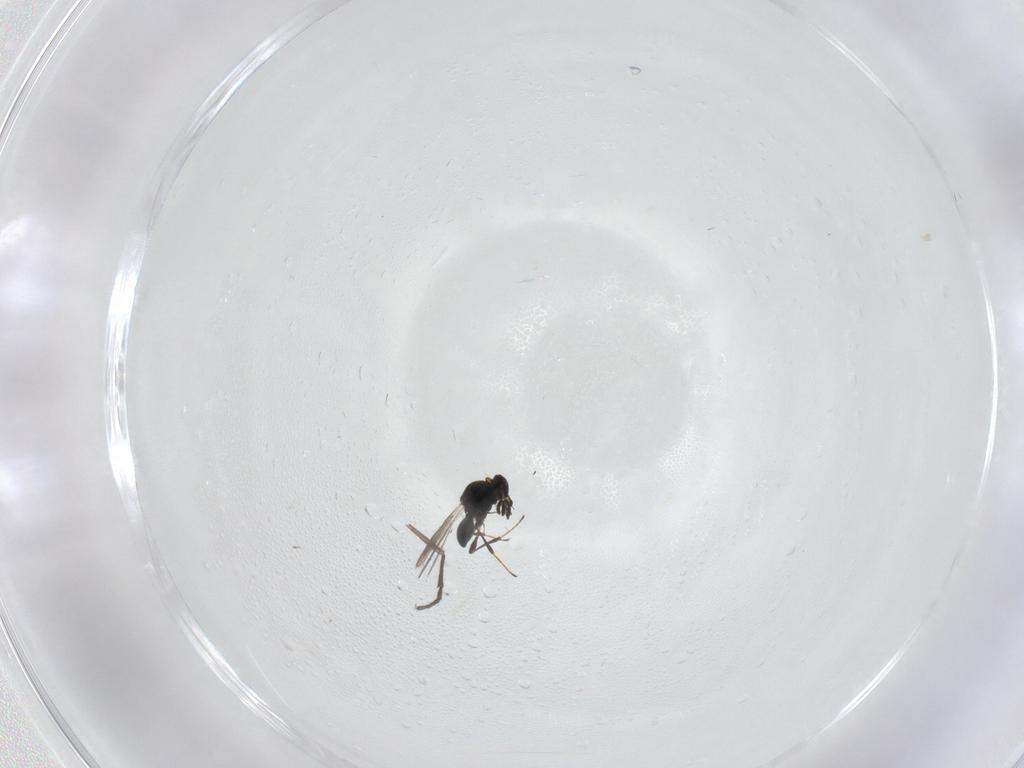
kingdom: Animalia
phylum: Arthropoda
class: Insecta
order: Hymenoptera
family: Platygastridae
